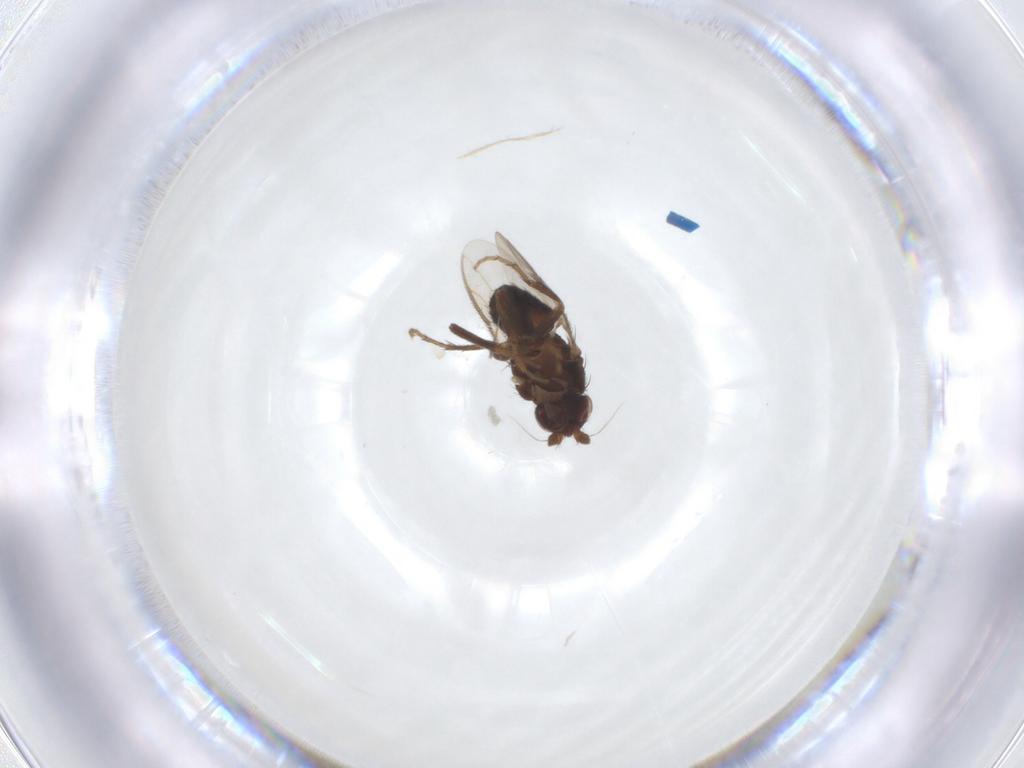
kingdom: Animalia
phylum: Arthropoda
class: Insecta
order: Diptera
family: Sphaeroceridae
